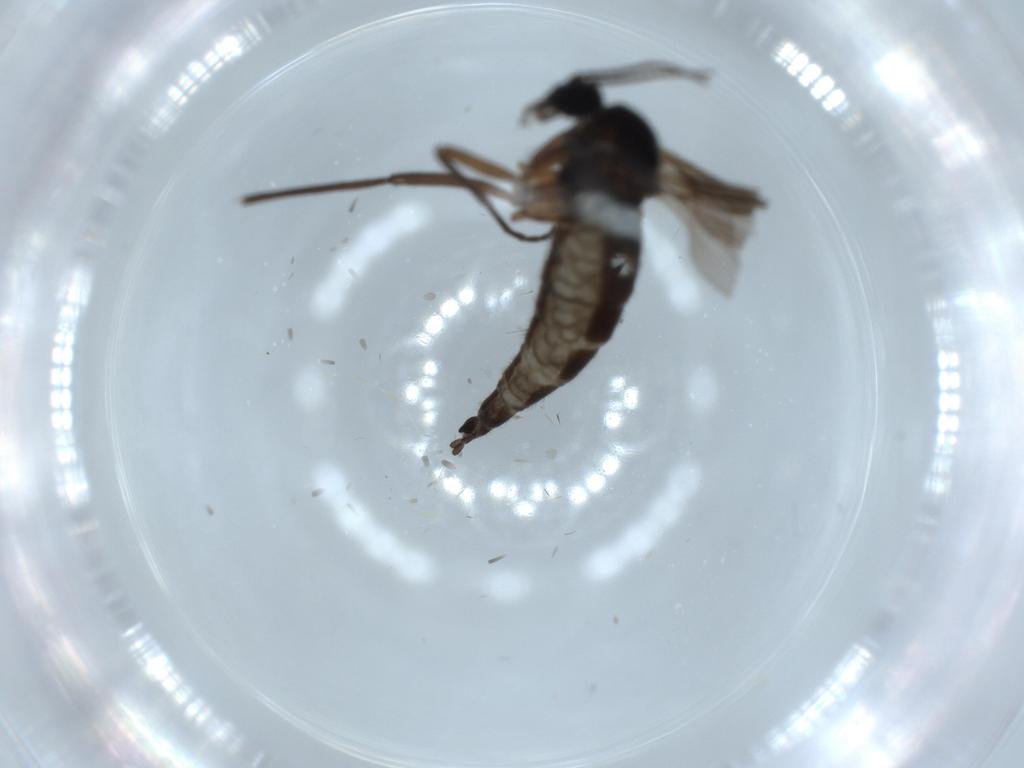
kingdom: Animalia
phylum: Arthropoda
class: Insecta
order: Diptera
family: Sciaridae
